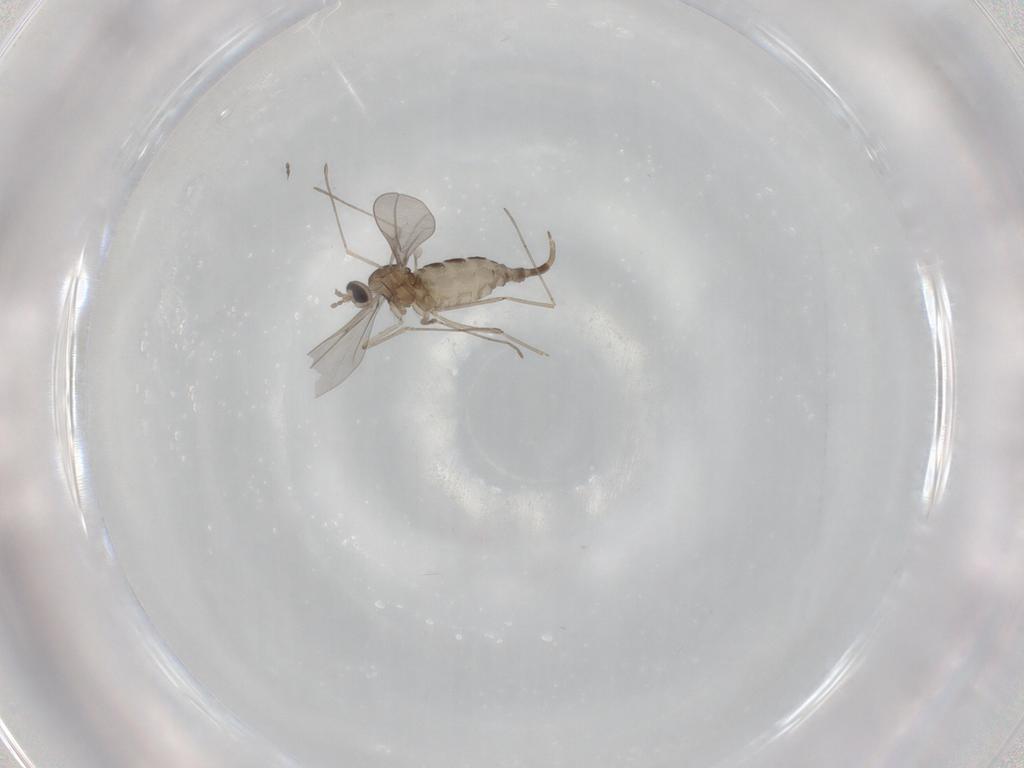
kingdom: Animalia
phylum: Arthropoda
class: Insecta
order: Diptera
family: Cecidomyiidae
